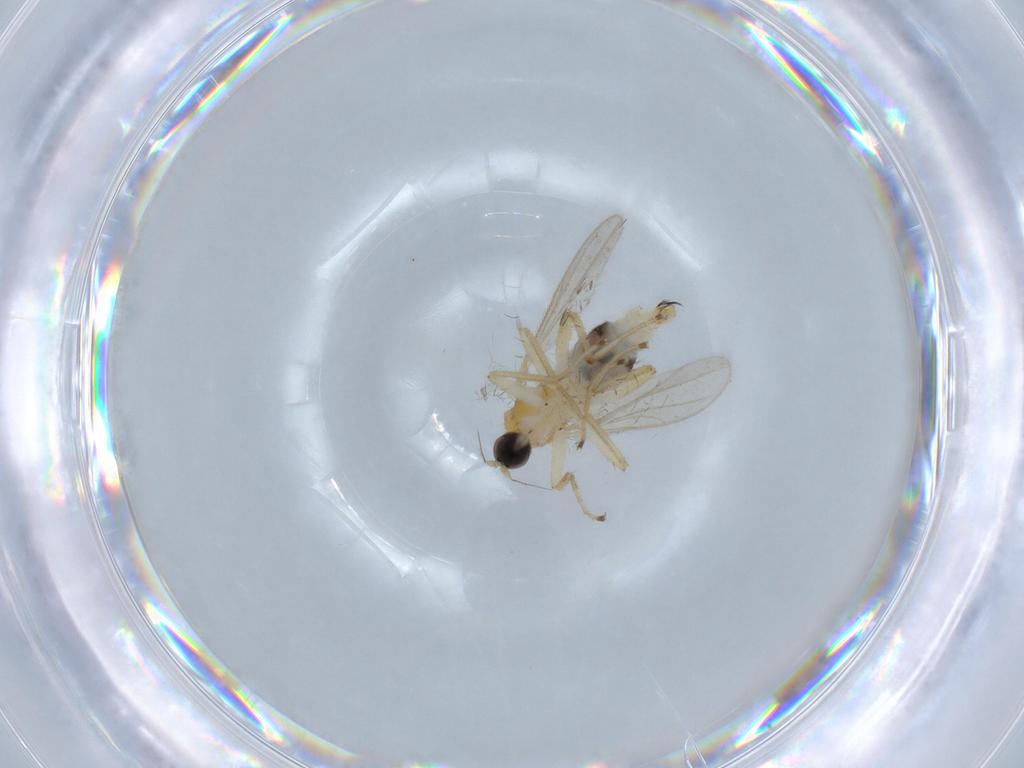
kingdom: Animalia
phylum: Arthropoda
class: Insecta
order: Diptera
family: Hybotidae
